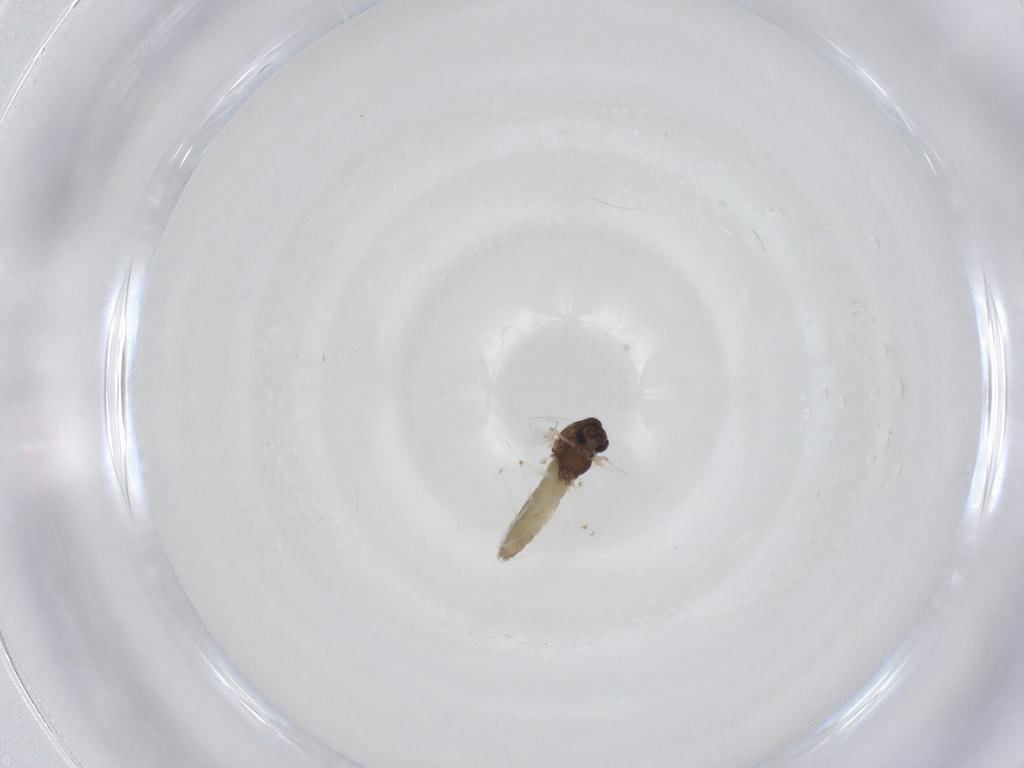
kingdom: Animalia
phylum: Arthropoda
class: Insecta
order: Diptera
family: Chironomidae
